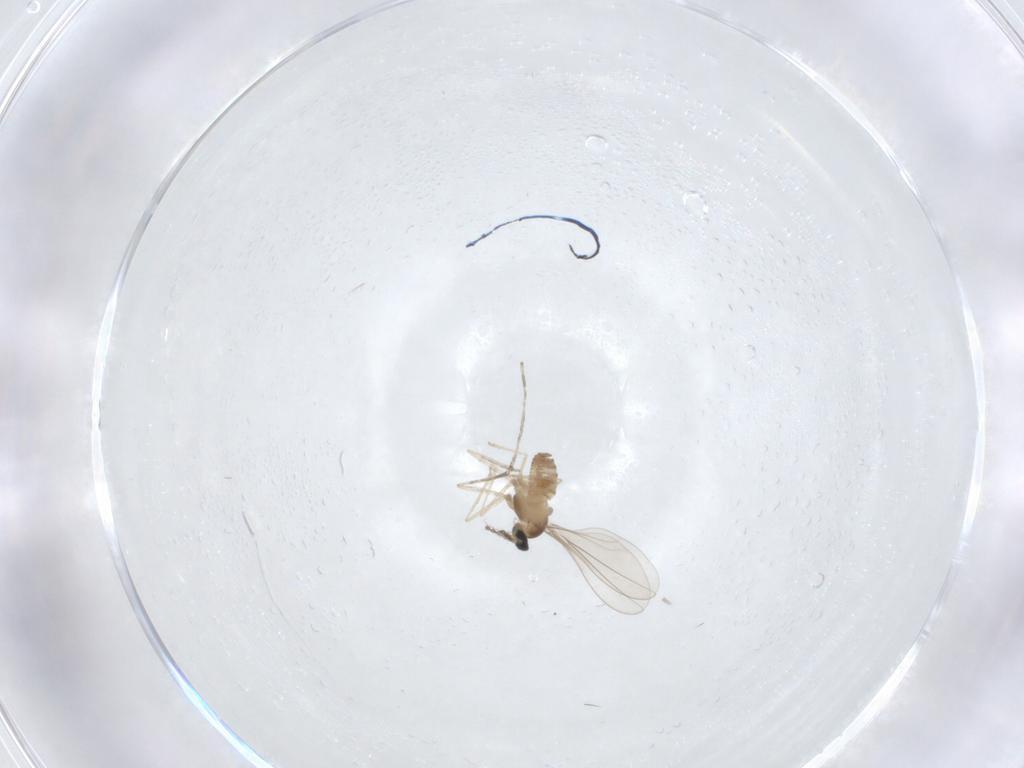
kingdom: Animalia
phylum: Arthropoda
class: Insecta
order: Diptera
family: Cecidomyiidae
